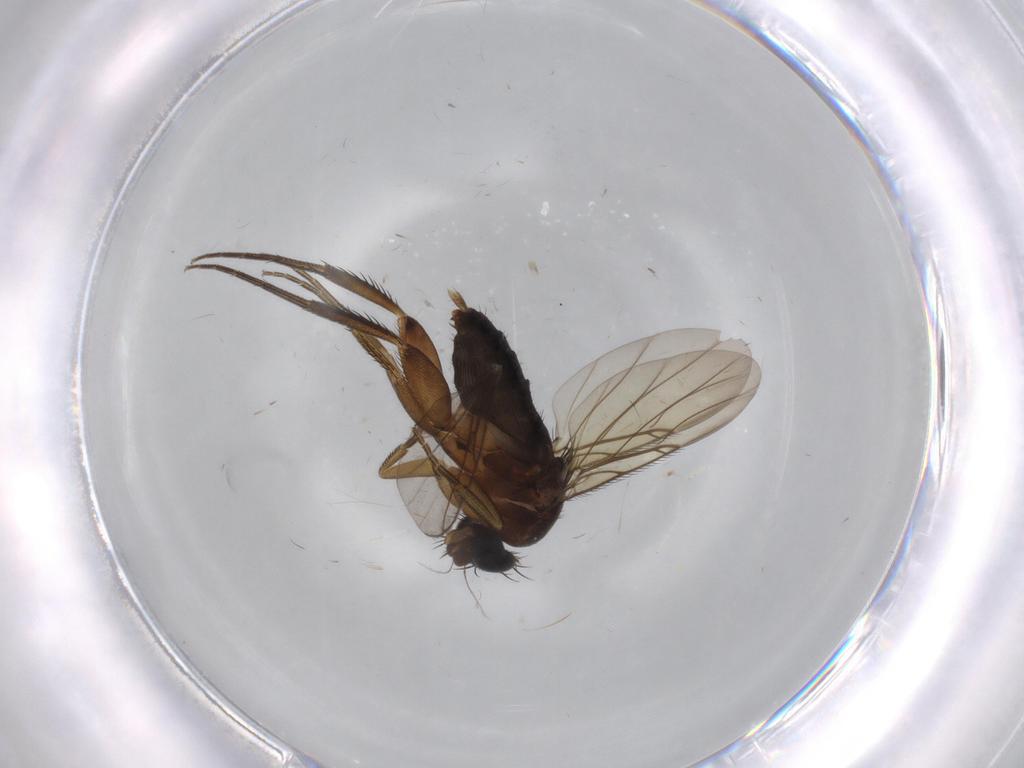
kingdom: Animalia
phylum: Arthropoda
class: Insecta
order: Diptera
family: Phoridae
